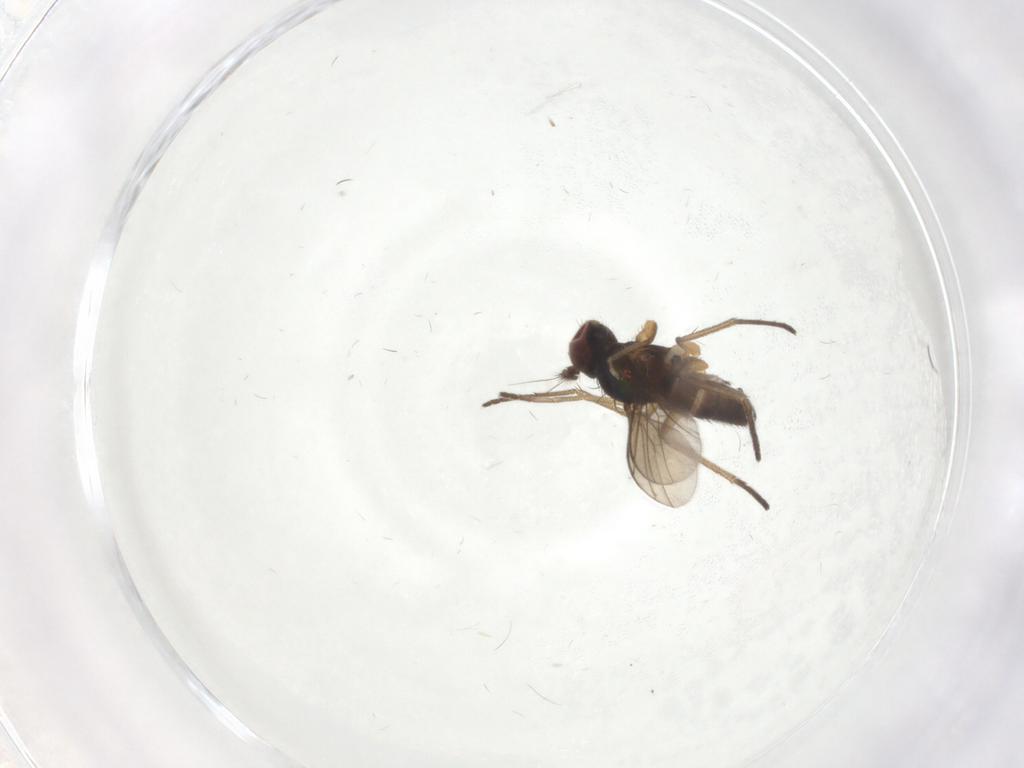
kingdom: Animalia
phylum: Arthropoda
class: Insecta
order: Diptera
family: Dolichopodidae
